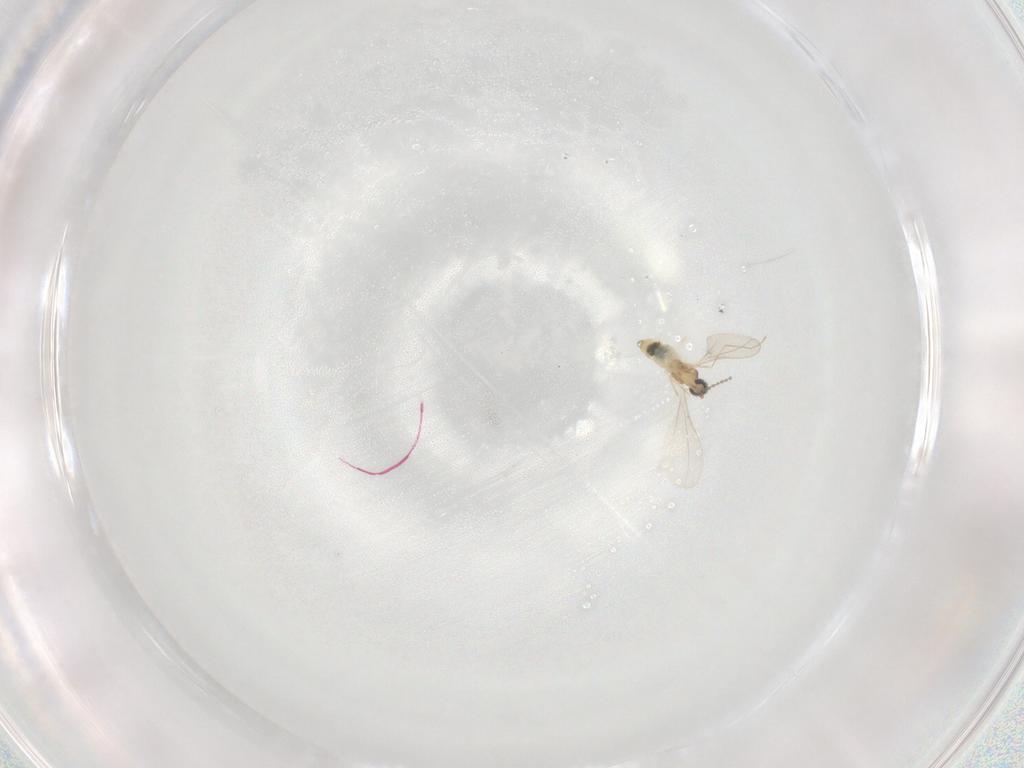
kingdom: Animalia
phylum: Arthropoda
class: Insecta
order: Diptera
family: Cecidomyiidae
